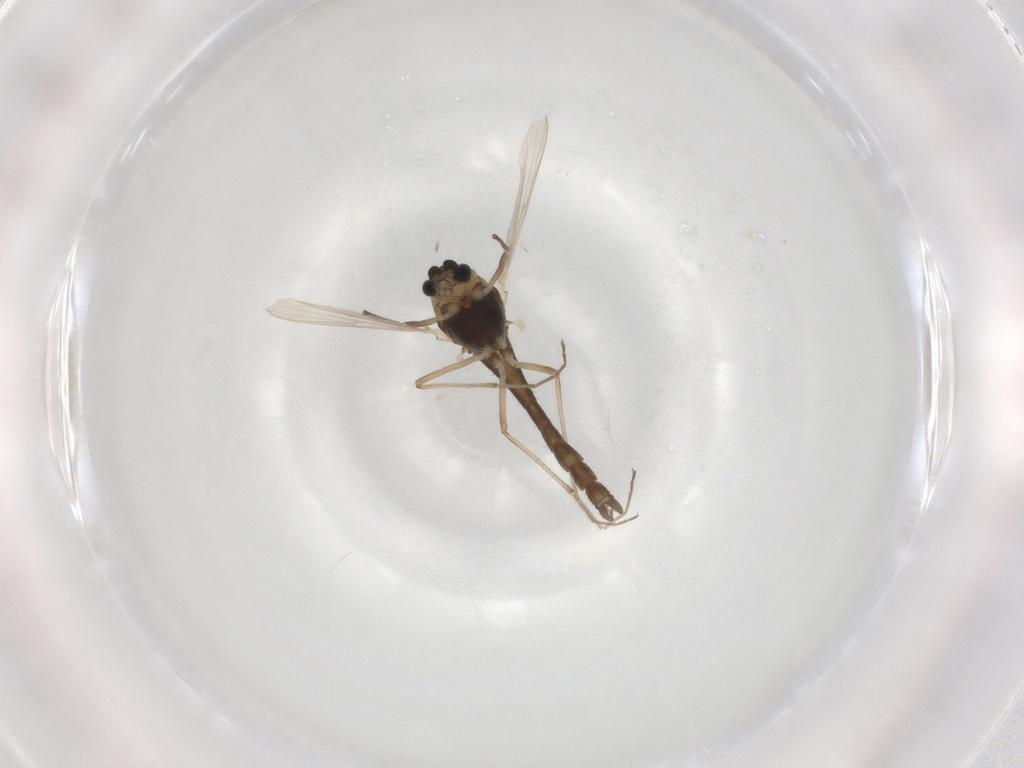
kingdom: Animalia
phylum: Arthropoda
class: Insecta
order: Diptera
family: Chironomidae
